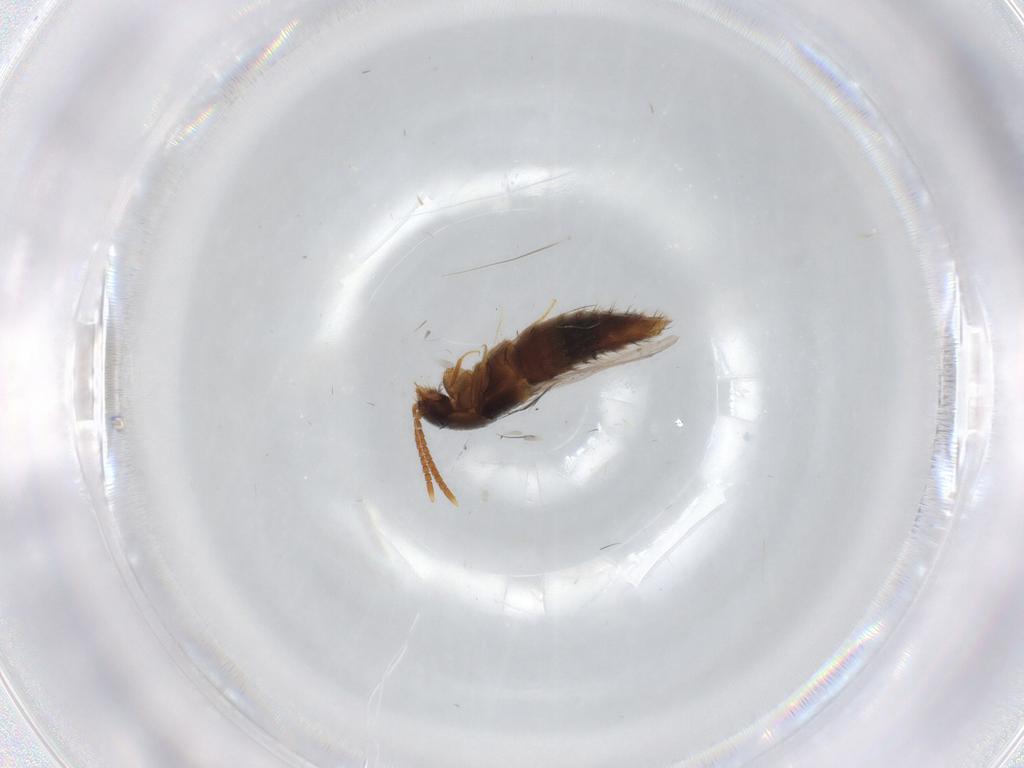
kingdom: Animalia
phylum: Arthropoda
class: Insecta
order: Coleoptera
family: Staphylinidae
